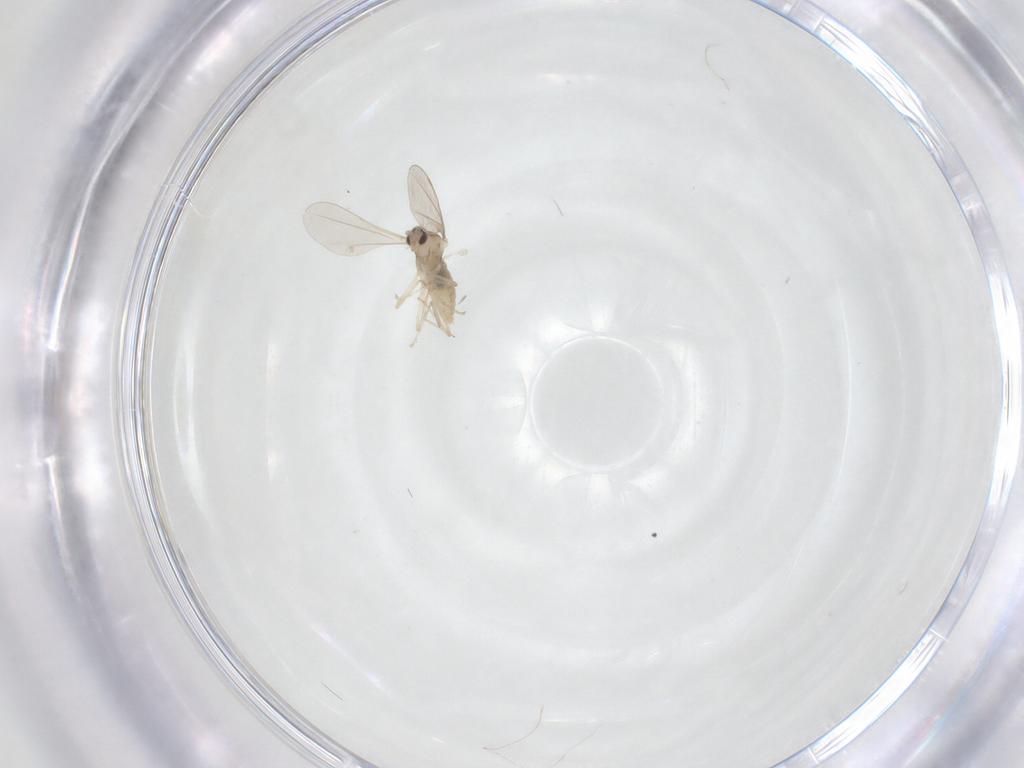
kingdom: Animalia
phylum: Arthropoda
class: Insecta
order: Diptera
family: Cecidomyiidae
